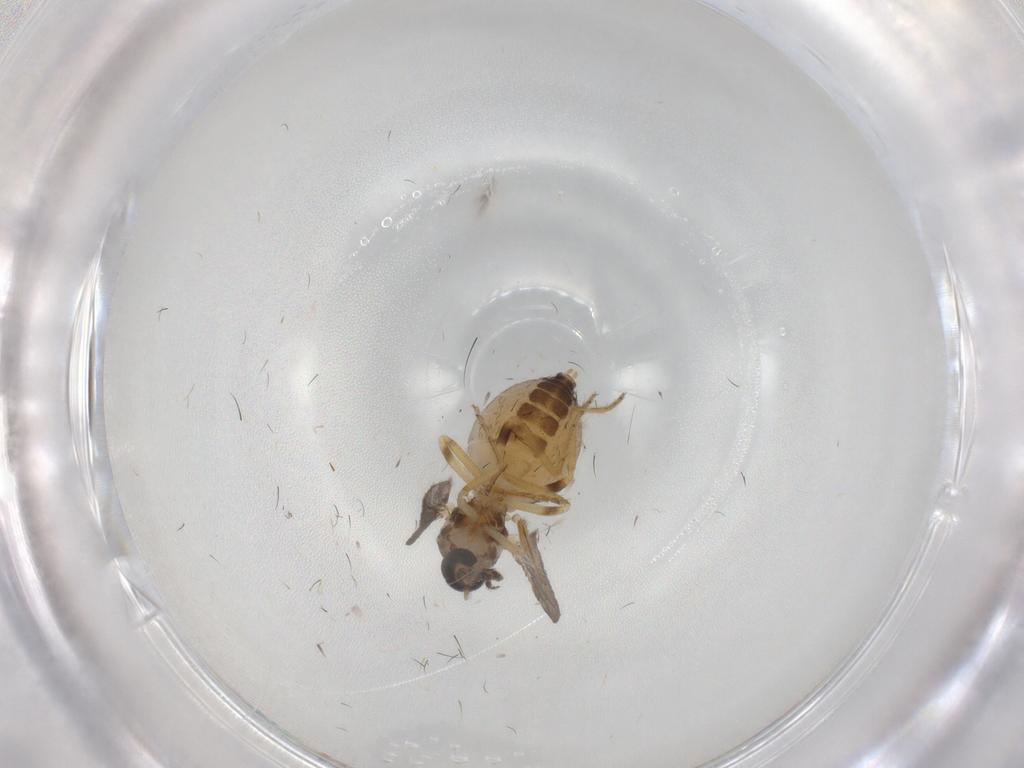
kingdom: Animalia
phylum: Arthropoda
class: Insecta
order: Diptera
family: Ceratopogonidae
